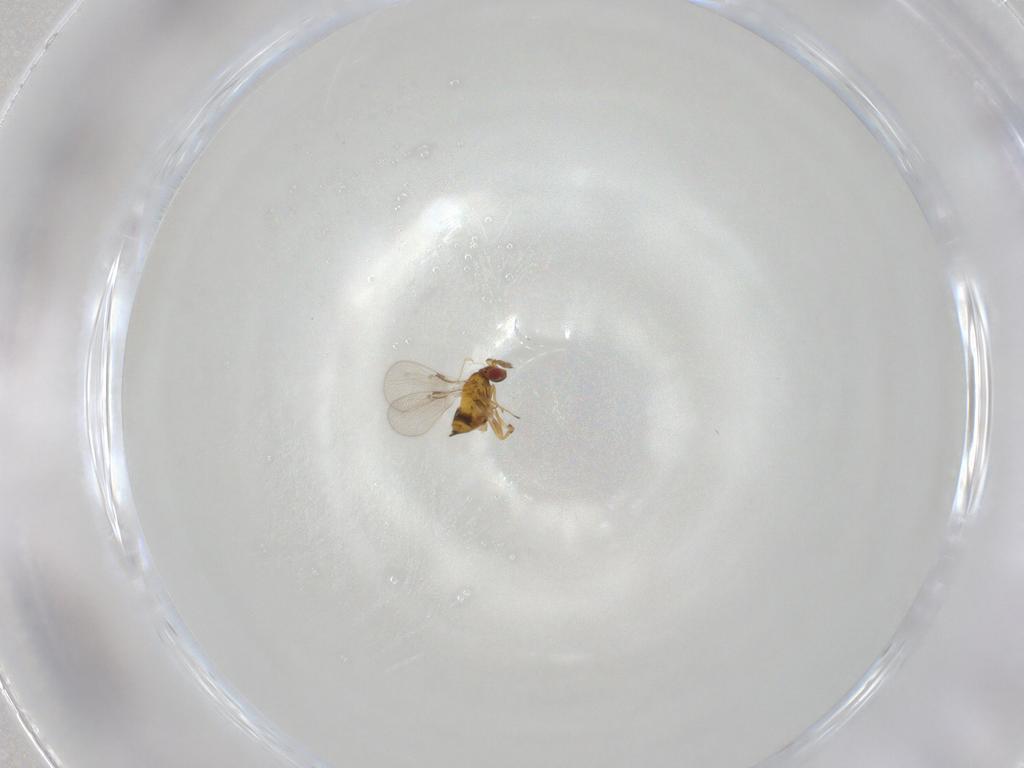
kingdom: Animalia
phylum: Arthropoda
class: Insecta
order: Hymenoptera
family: Trichogrammatidae
